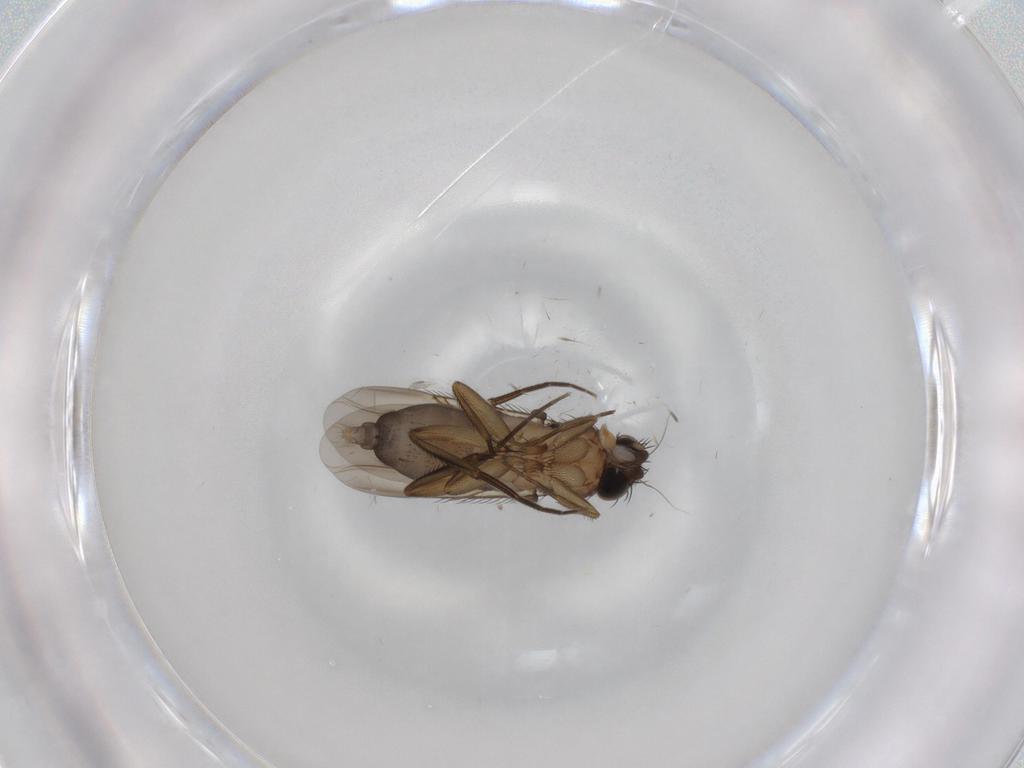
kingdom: Animalia
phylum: Arthropoda
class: Insecta
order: Diptera
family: Phoridae
